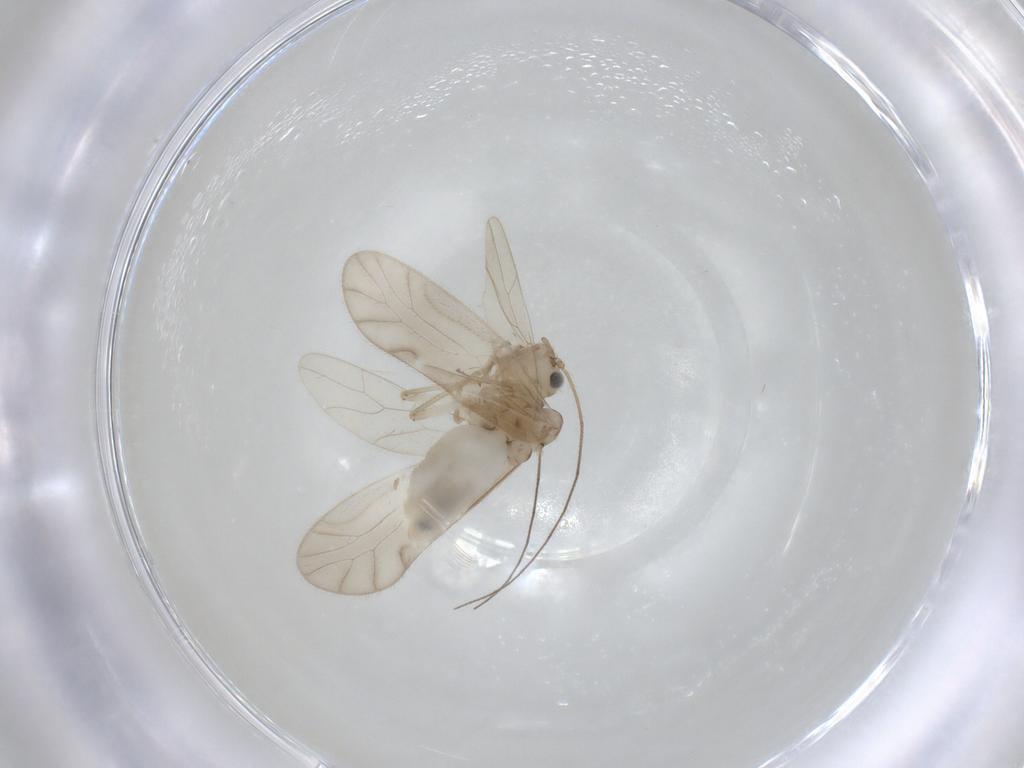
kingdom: Animalia
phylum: Arthropoda
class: Insecta
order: Psocodea
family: Caeciliusidae
